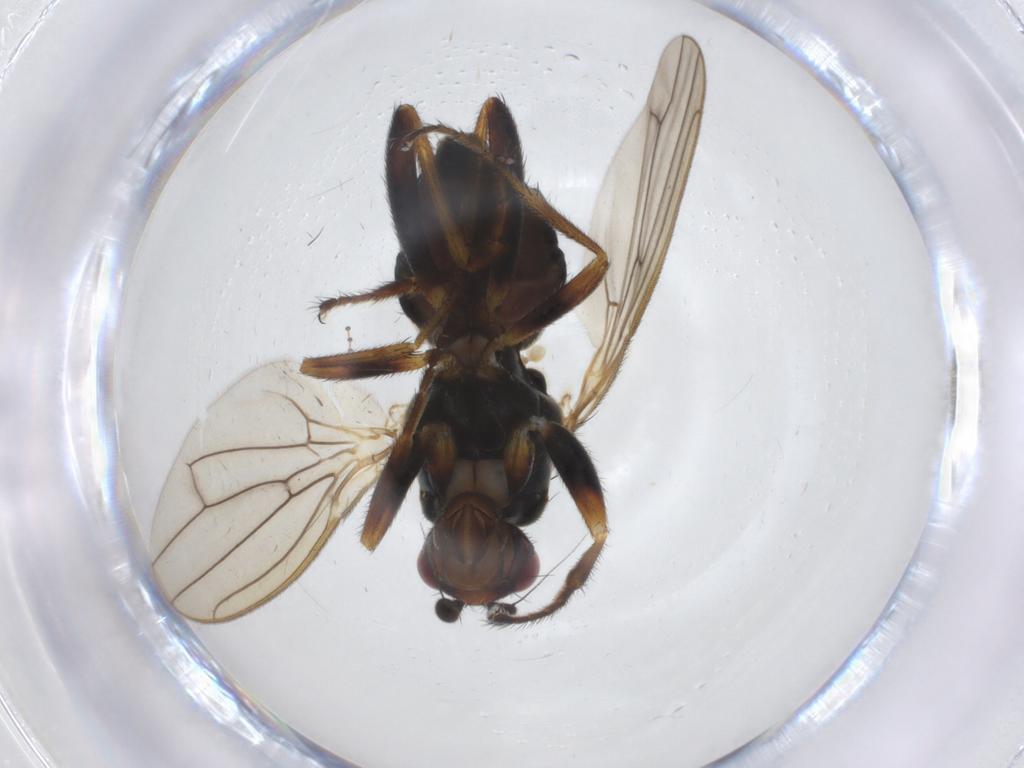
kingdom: Animalia
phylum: Arthropoda
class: Insecta
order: Diptera
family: Sphaeroceridae
